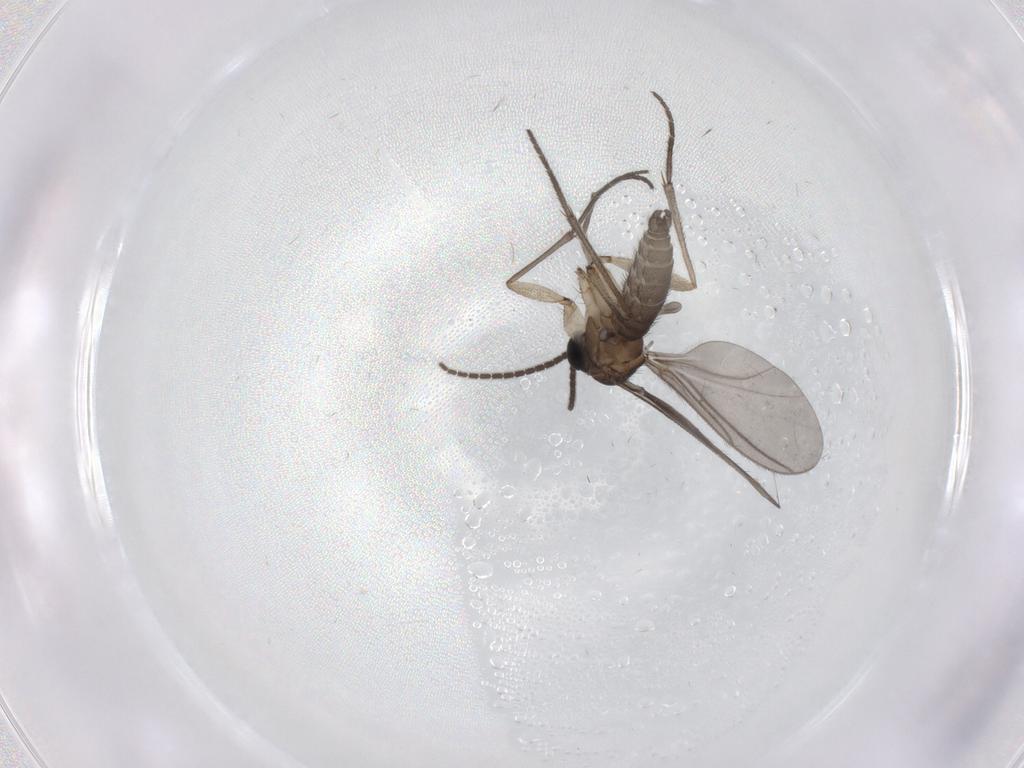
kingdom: Animalia
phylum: Arthropoda
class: Insecta
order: Diptera
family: Sciaridae
